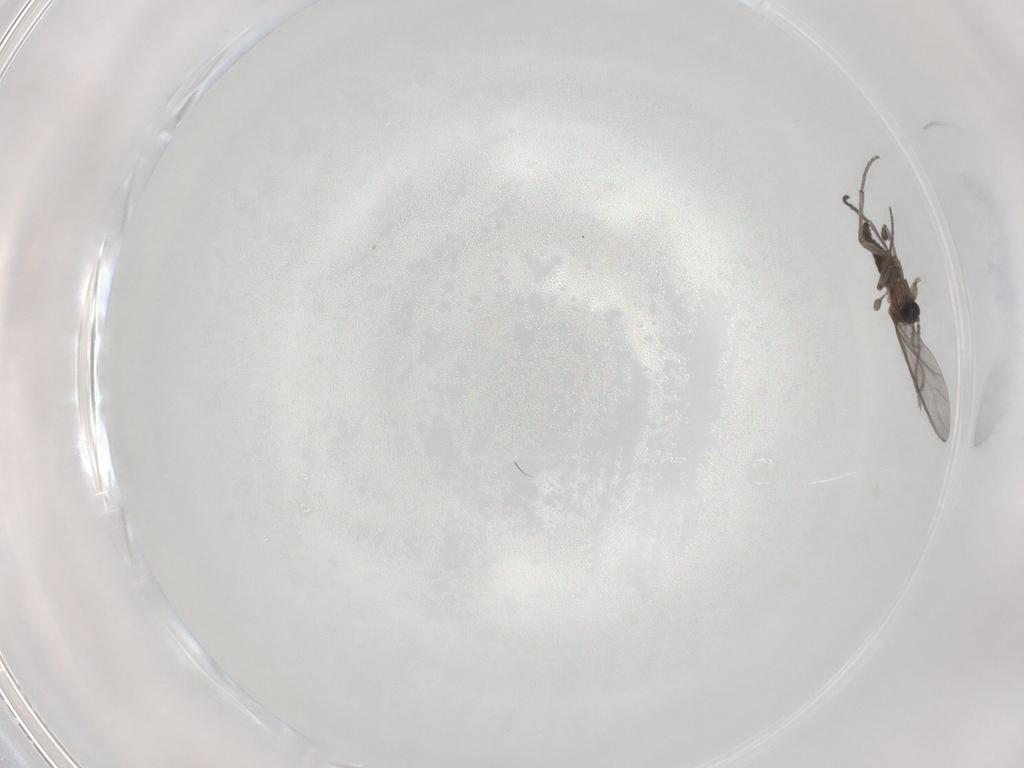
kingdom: Animalia
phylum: Arthropoda
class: Insecta
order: Diptera
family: Sciaridae
